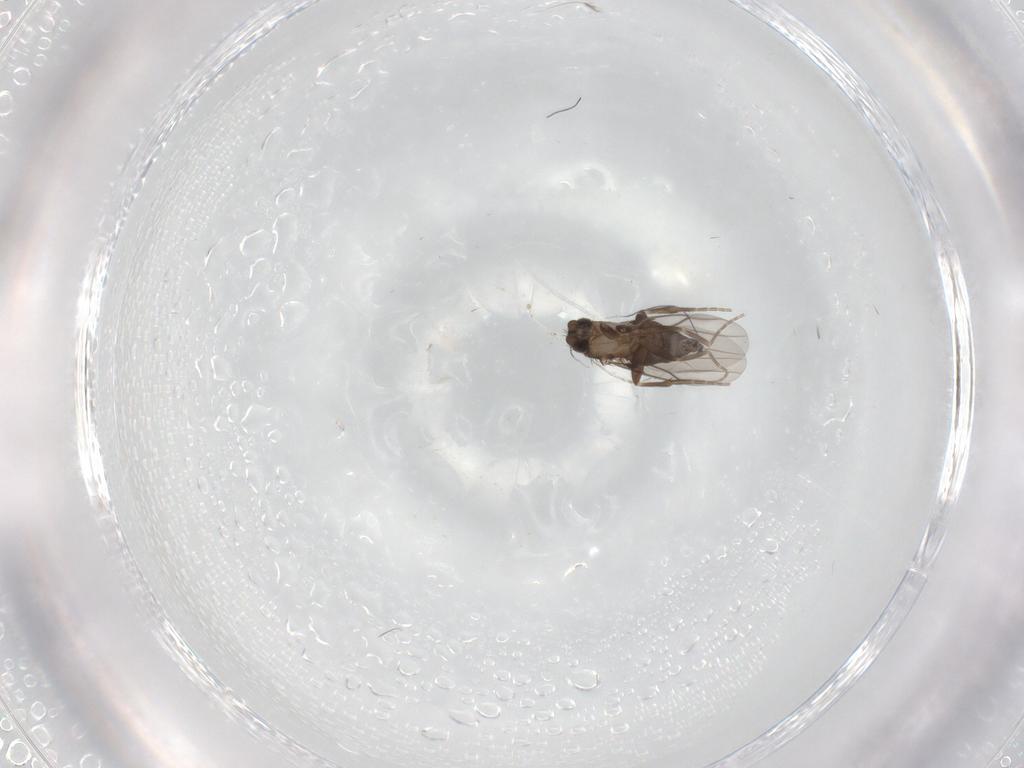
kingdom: Animalia
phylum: Arthropoda
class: Insecta
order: Diptera
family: Phoridae
